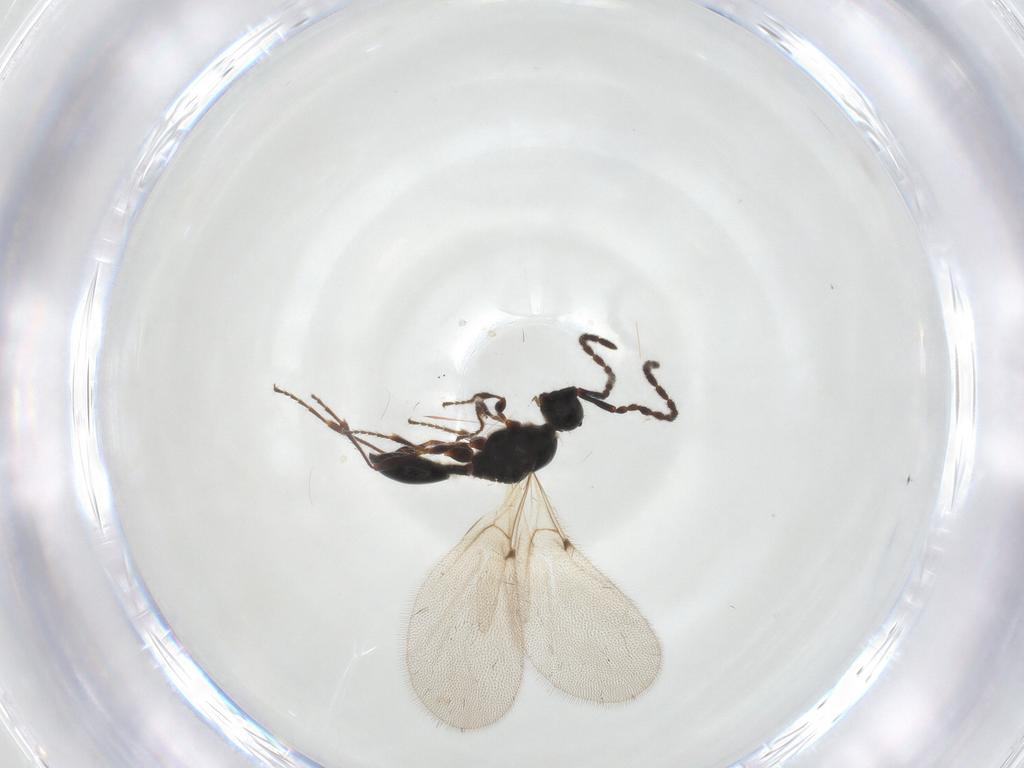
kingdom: Animalia
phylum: Arthropoda
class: Insecta
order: Hymenoptera
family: Diapriidae
